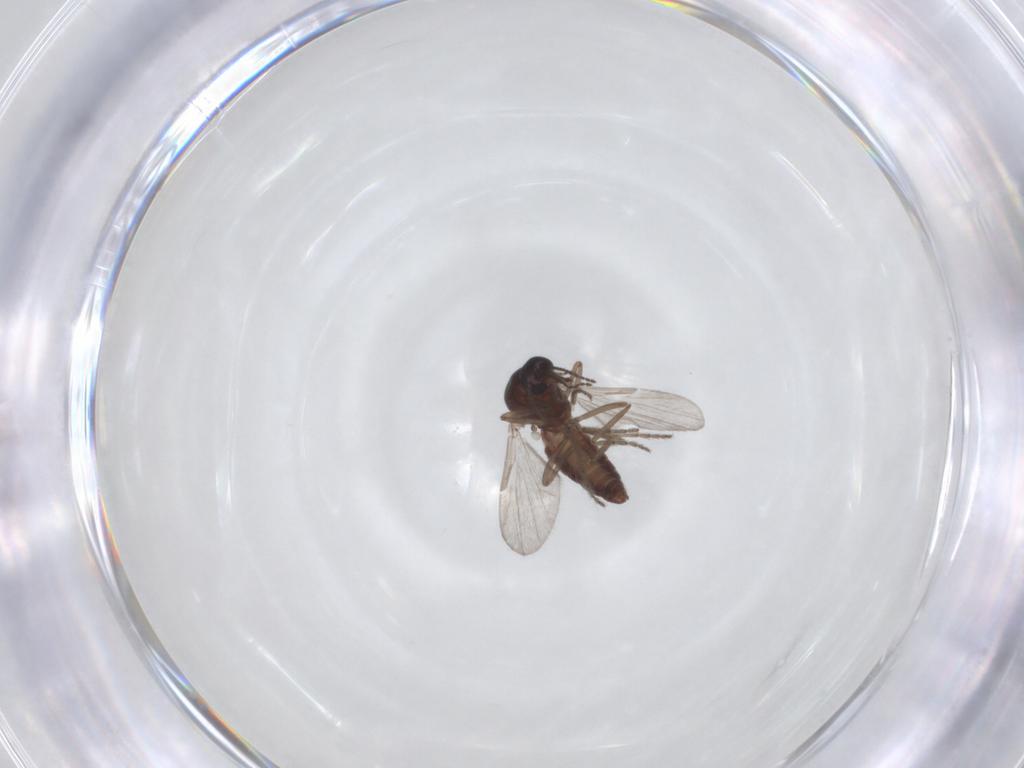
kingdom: Animalia
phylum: Arthropoda
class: Insecta
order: Diptera
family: Ceratopogonidae
